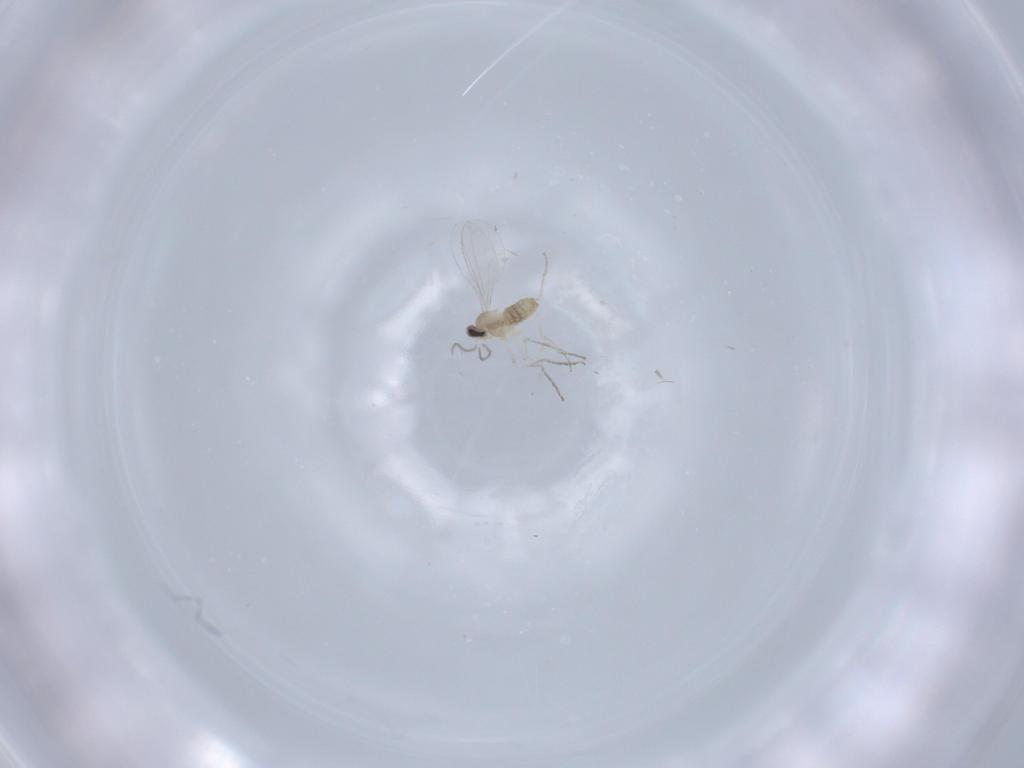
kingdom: Animalia
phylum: Arthropoda
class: Insecta
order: Diptera
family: Cecidomyiidae
